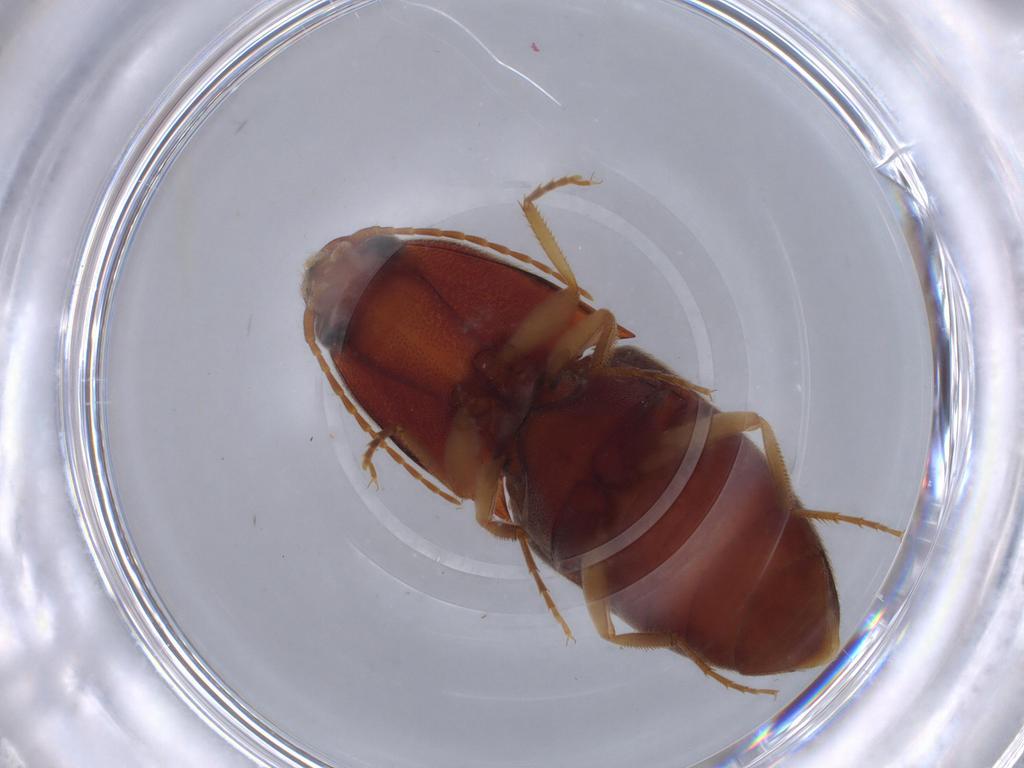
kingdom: Animalia
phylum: Arthropoda
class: Insecta
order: Coleoptera
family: Elateridae
